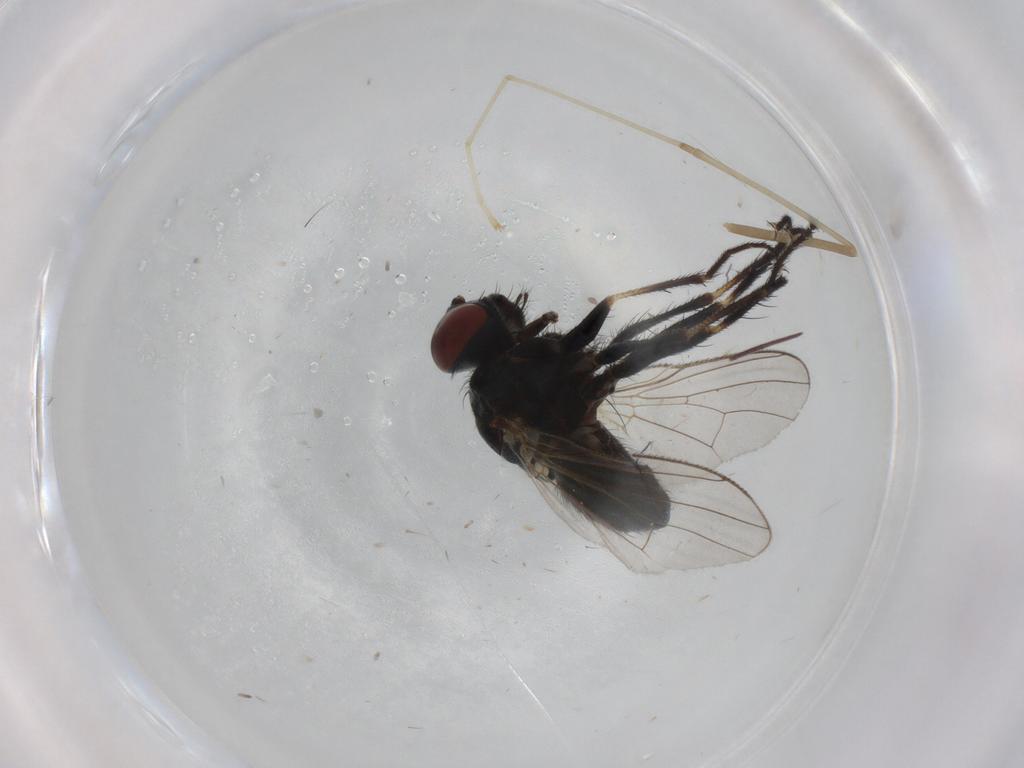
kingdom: Animalia
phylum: Arthropoda
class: Insecta
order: Diptera
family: Muscidae
